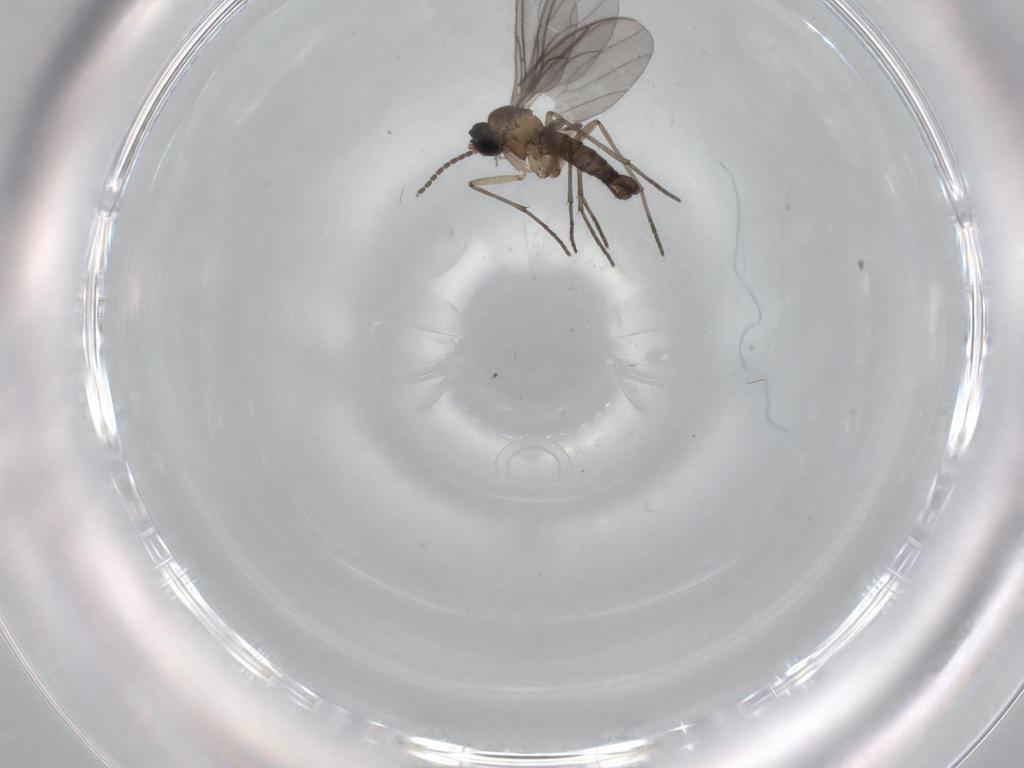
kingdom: Animalia
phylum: Arthropoda
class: Insecta
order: Diptera
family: Sciaridae
